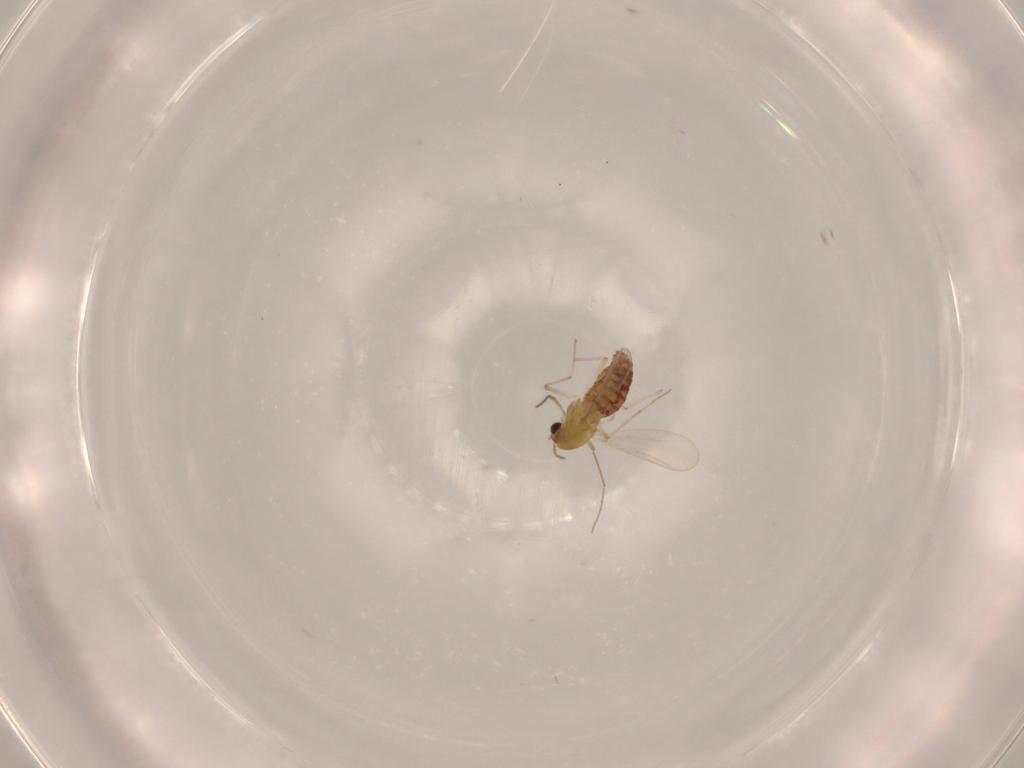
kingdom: Animalia
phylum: Arthropoda
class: Insecta
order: Diptera
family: Chironomidae
